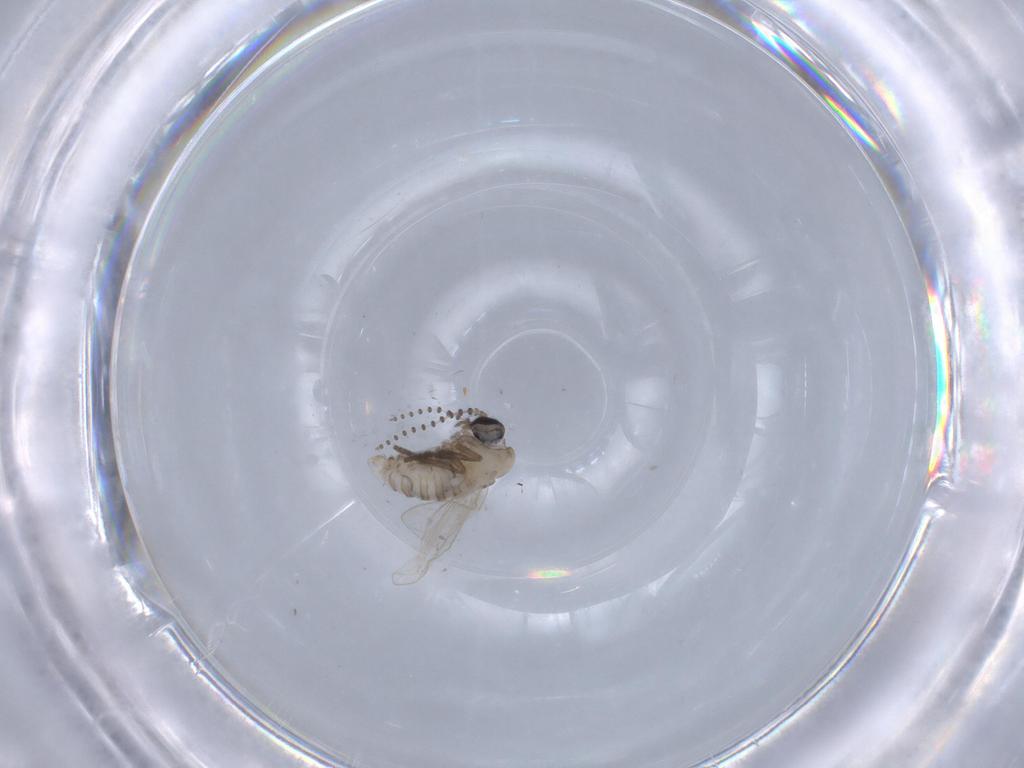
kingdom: Animalia
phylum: Arthropoda
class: Insecta
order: Diptera
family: Psychodidae
